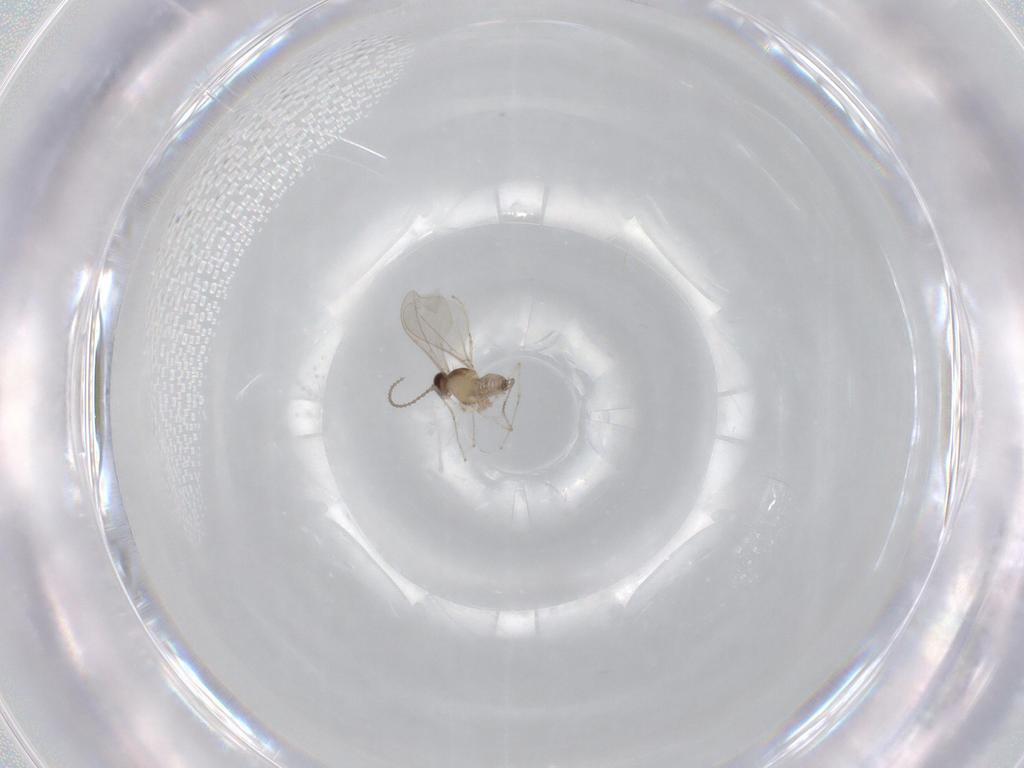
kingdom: Animalia
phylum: Arthropoda
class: Insecta
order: Diptera
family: Cecidomyiidae
